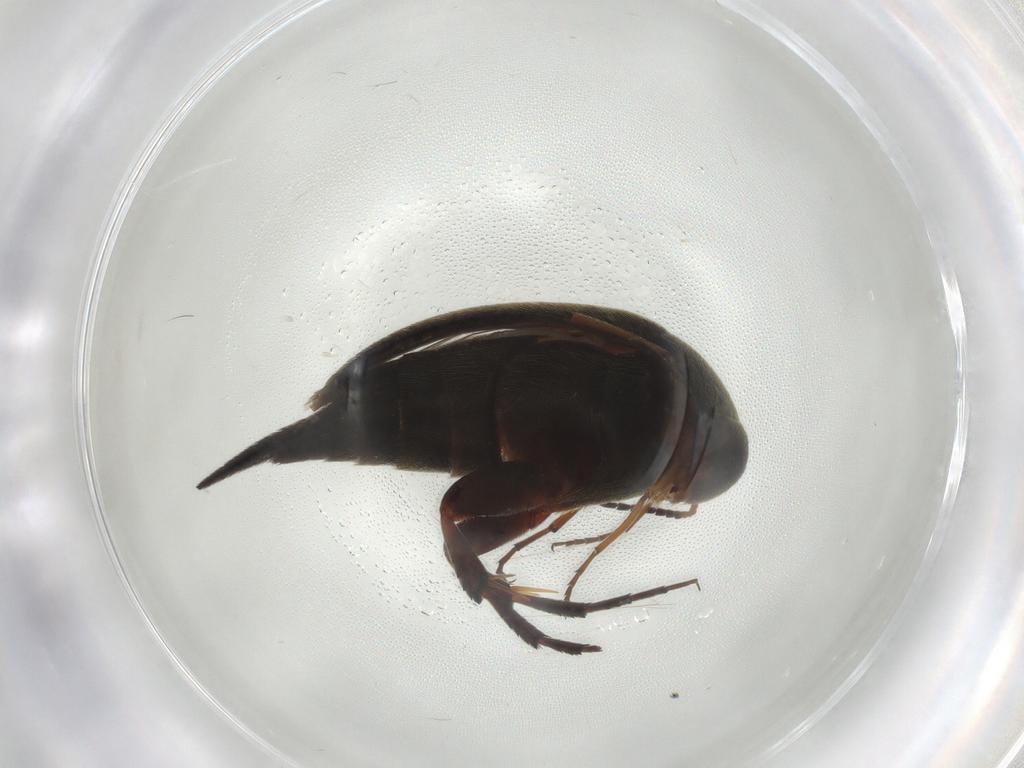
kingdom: Animalia
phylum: Arthropoda
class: Insecta
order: Coleoptera
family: Mordellidae
